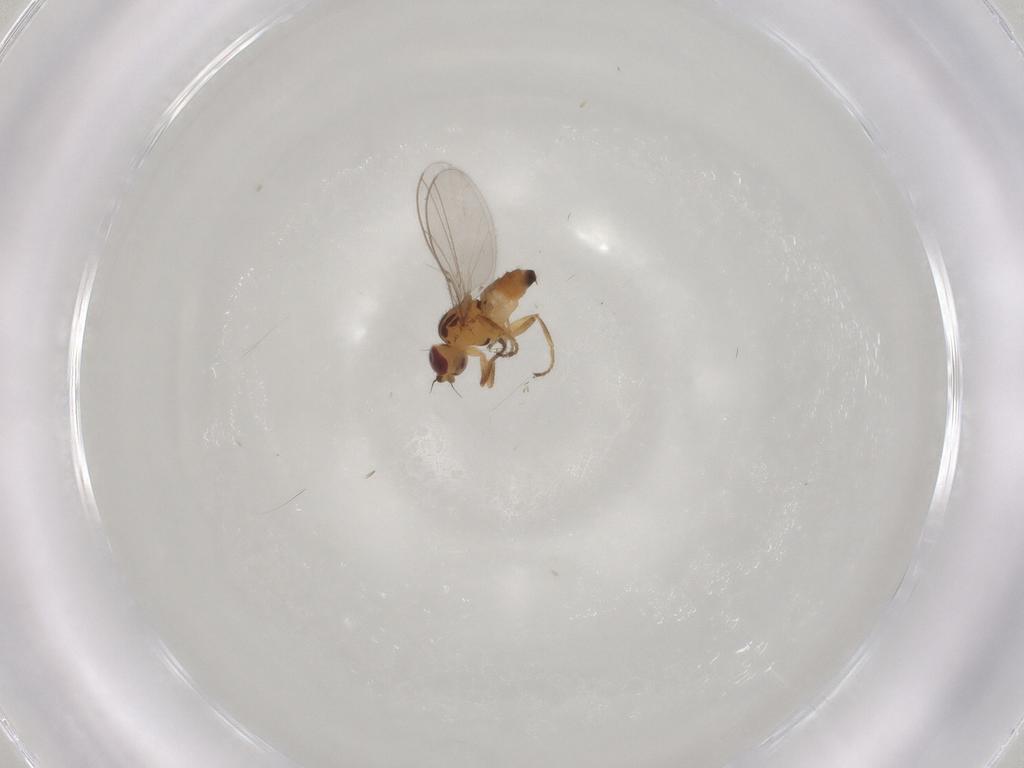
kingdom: Animalia
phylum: Arthropoda
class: Insecta
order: Diptera
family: Chloropidae
